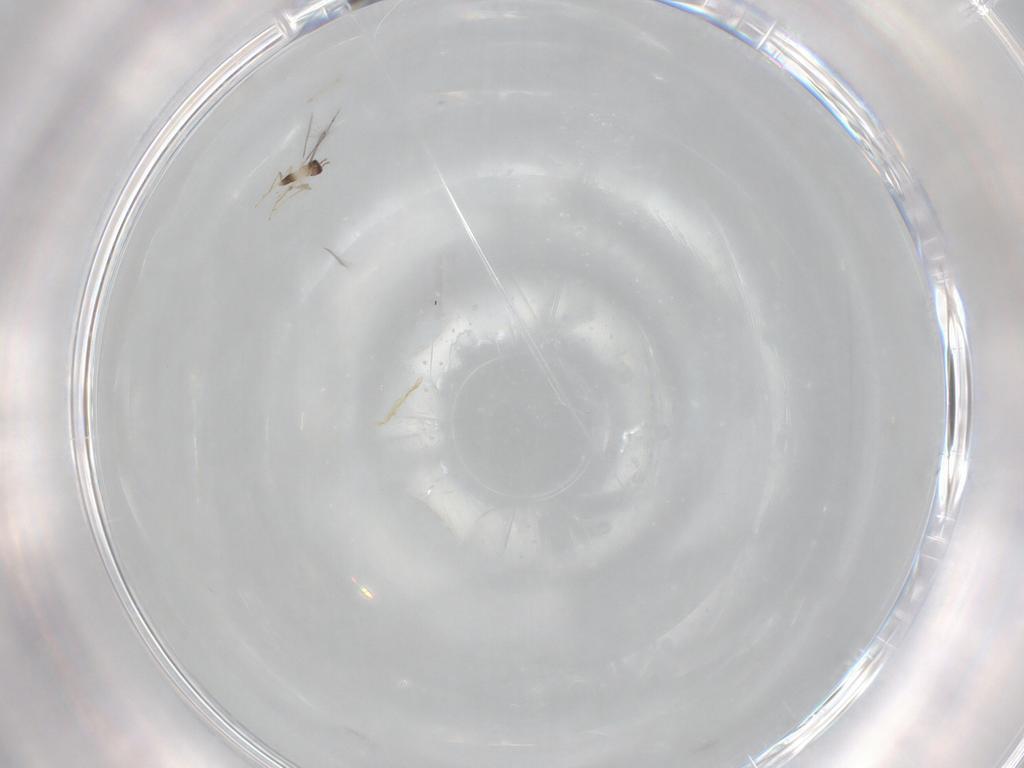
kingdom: Animalia
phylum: Arthropoda
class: Insecta
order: Hymenoptera
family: Mymaridae
